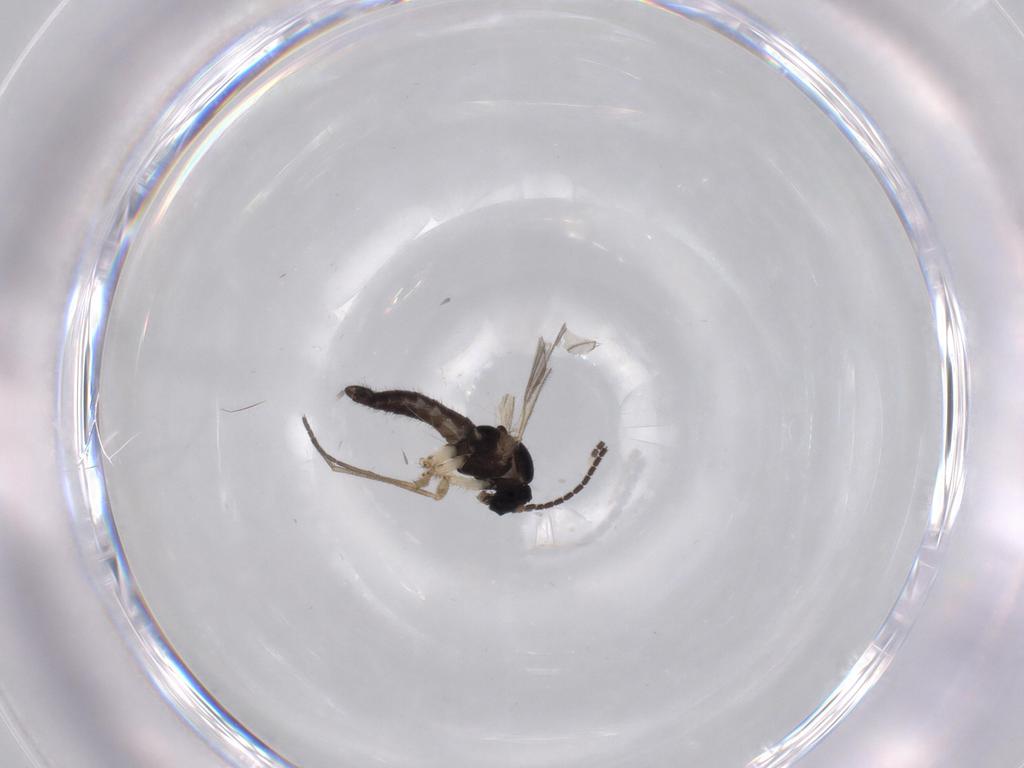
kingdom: Animalia
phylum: Arthropoda
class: Insecta
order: Diptera
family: Sciaridae
